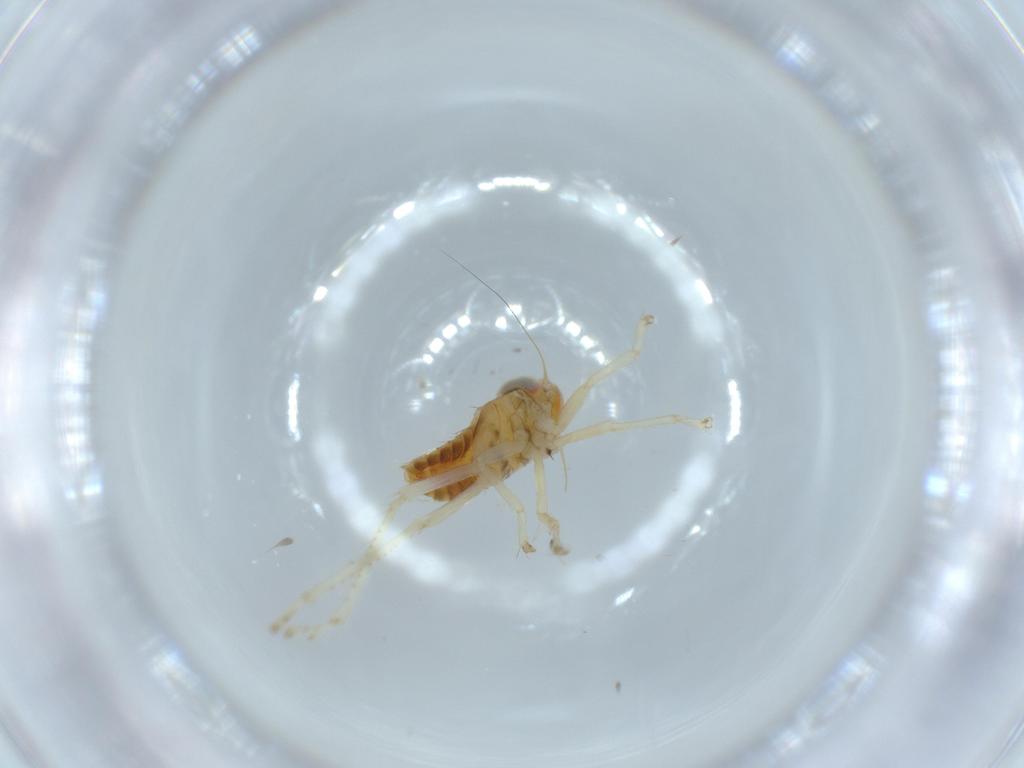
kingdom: Animalia
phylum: Arthropoda
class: Insecta
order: Hemiptera
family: Cicadellidae
